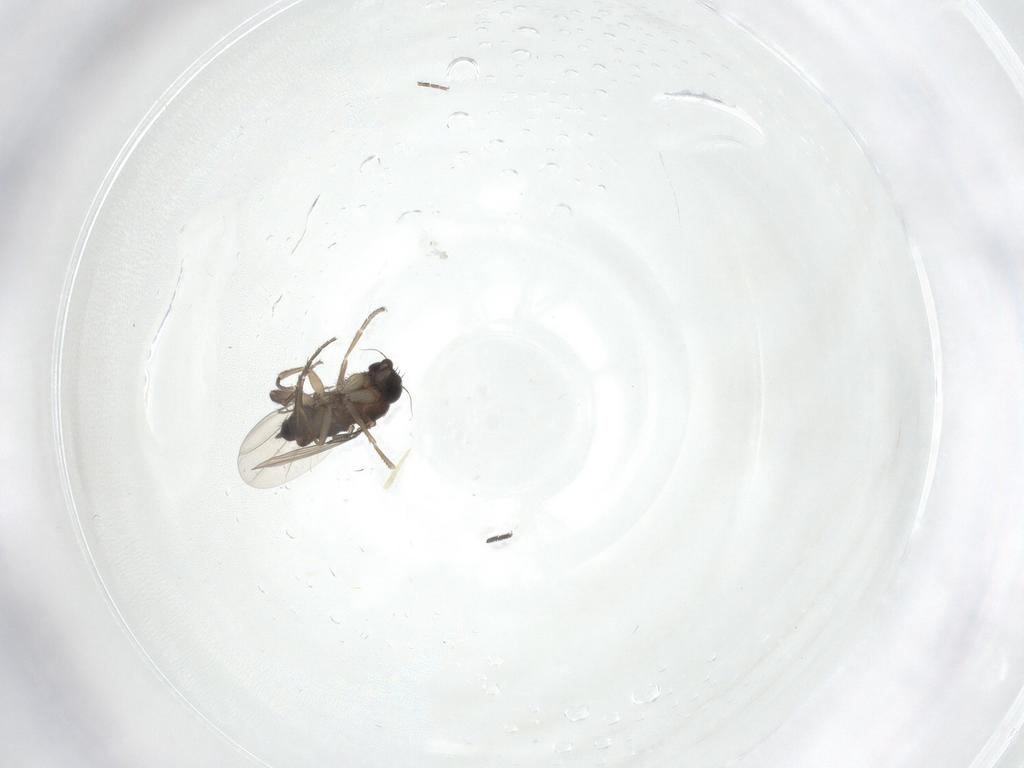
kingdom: Animalia
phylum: Arthropoda
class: Insecta
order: Diptera
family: Phoridae
